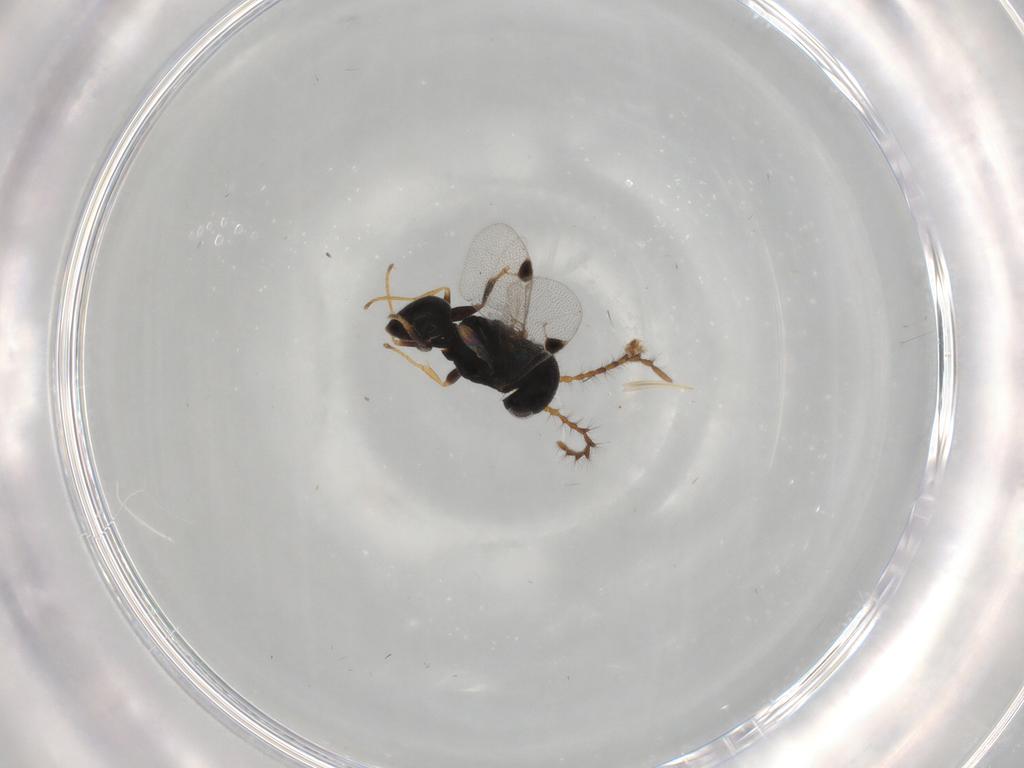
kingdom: Animalia
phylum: Arthropoda
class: Insecta
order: Hymenoptera
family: Dryinidae
